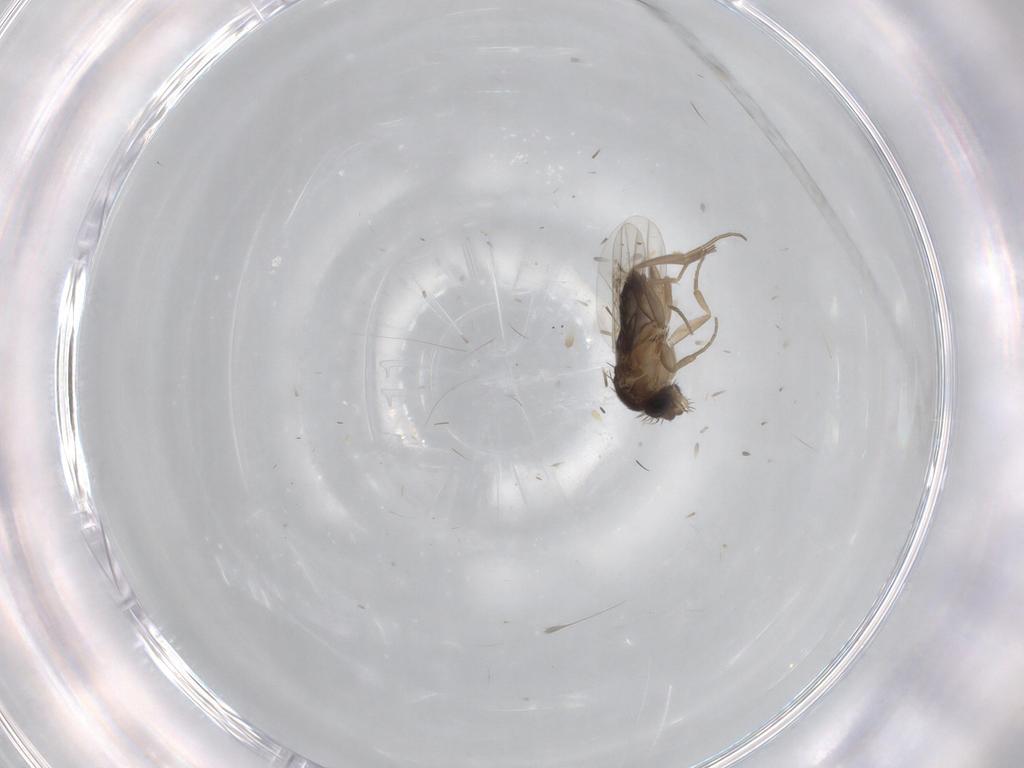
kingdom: Animalia
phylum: Arthropoda
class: Insecta
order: Diptera
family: Phoridae
